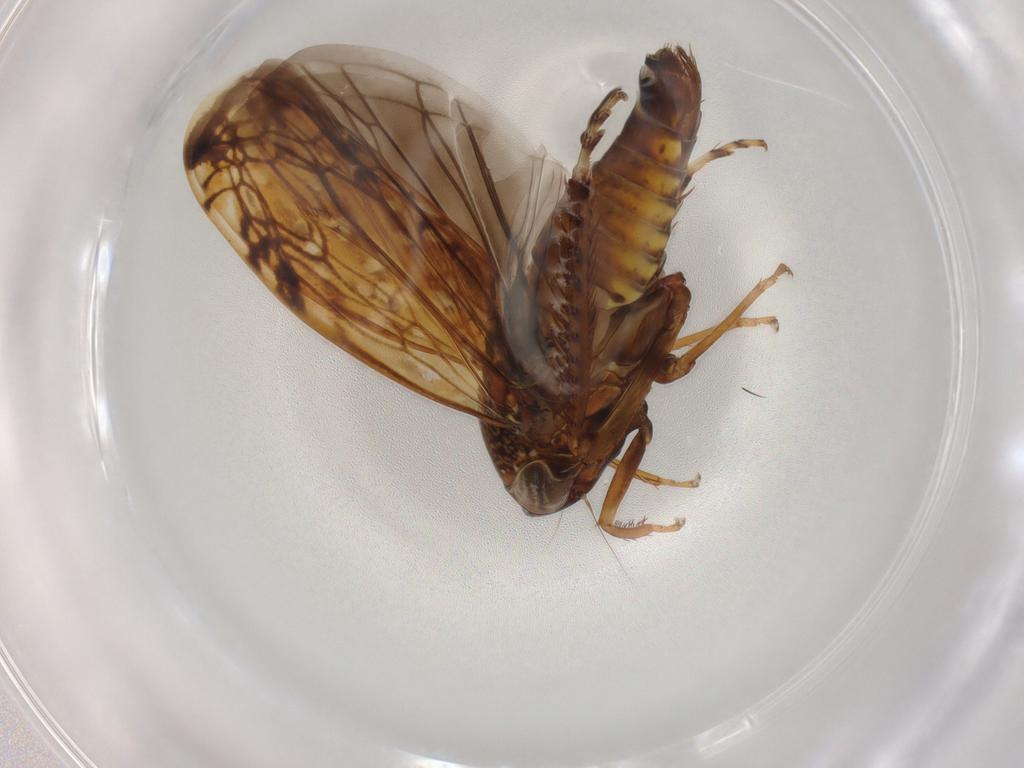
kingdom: Animalia
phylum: Arthropoda
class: Insecta
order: Hemiptera
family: Cicadellidae
